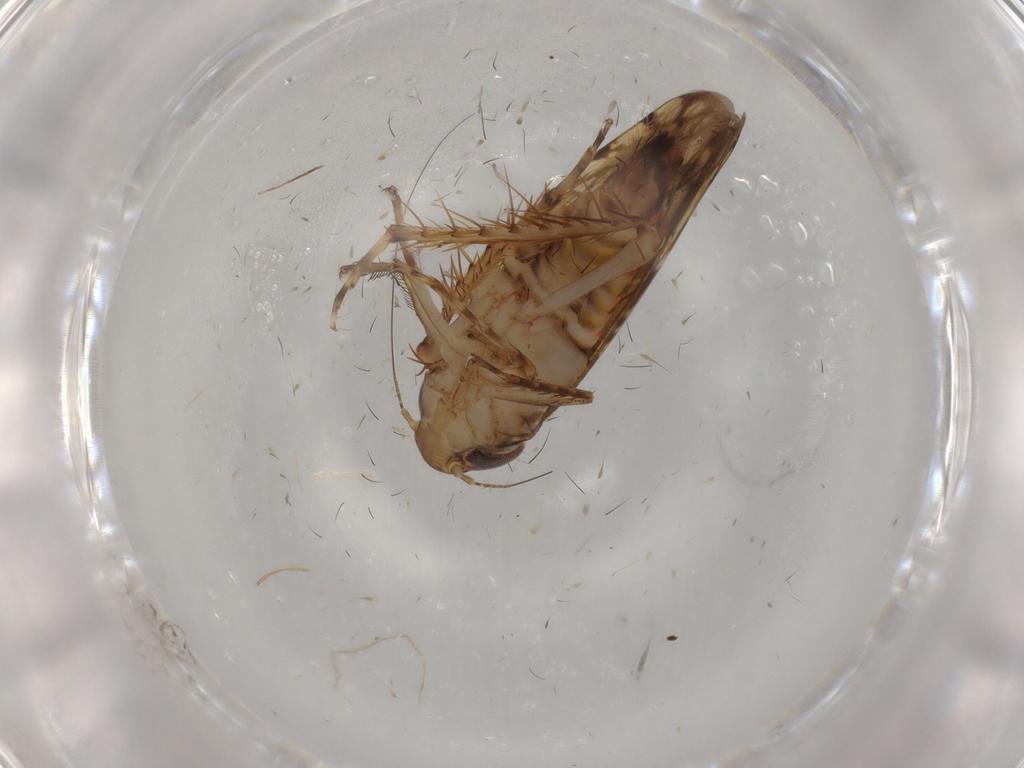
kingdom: Animalia
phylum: Arthropoda
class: Insecta
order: Hemiptera
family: Cicadellidae
